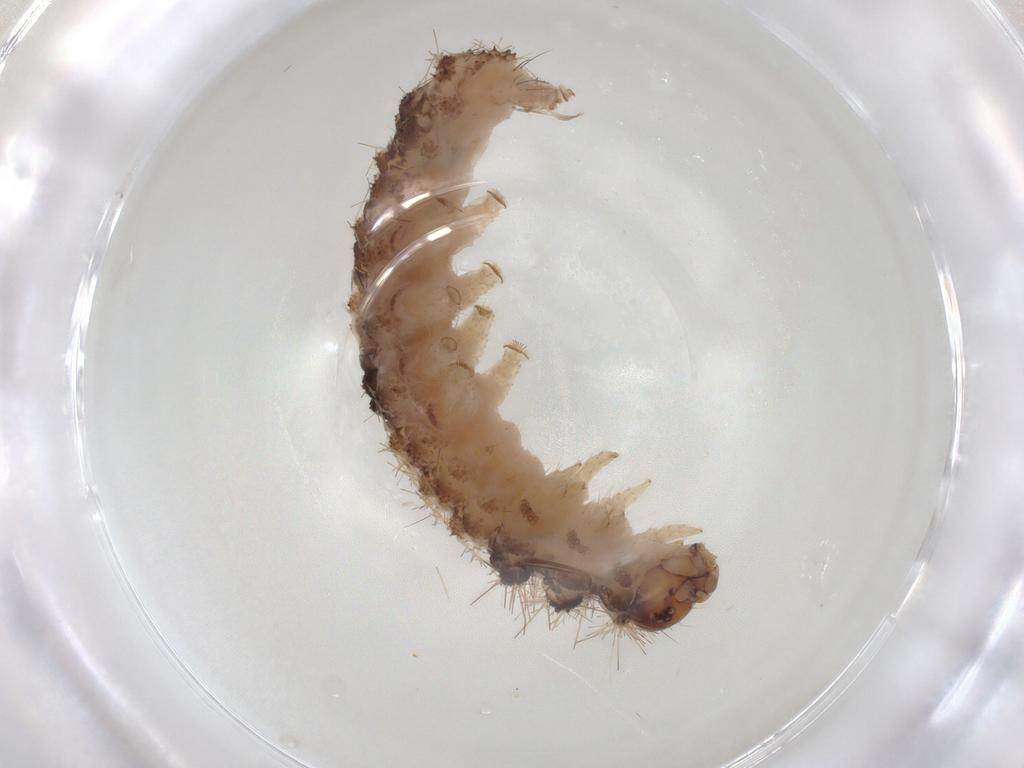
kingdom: Animalia
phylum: Arthropoda
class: Insecta
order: Lepidoptera
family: Erebidae
